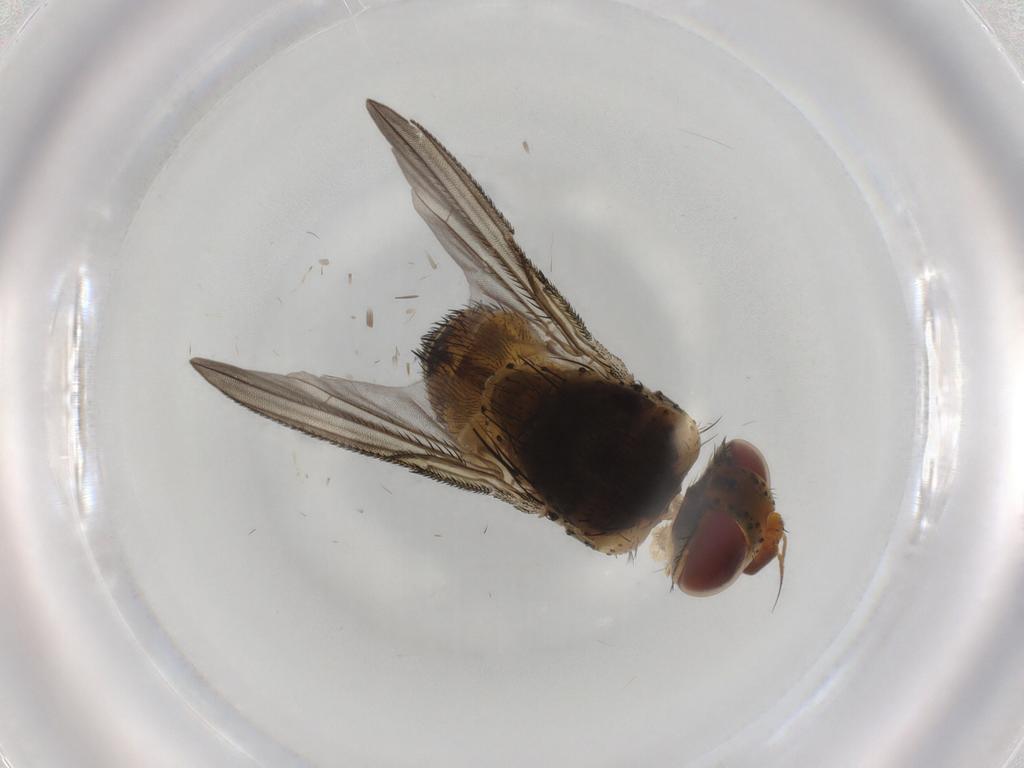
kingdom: Animalia
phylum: Arthropoda
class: Insecta
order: Diptera
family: Tachinidae
